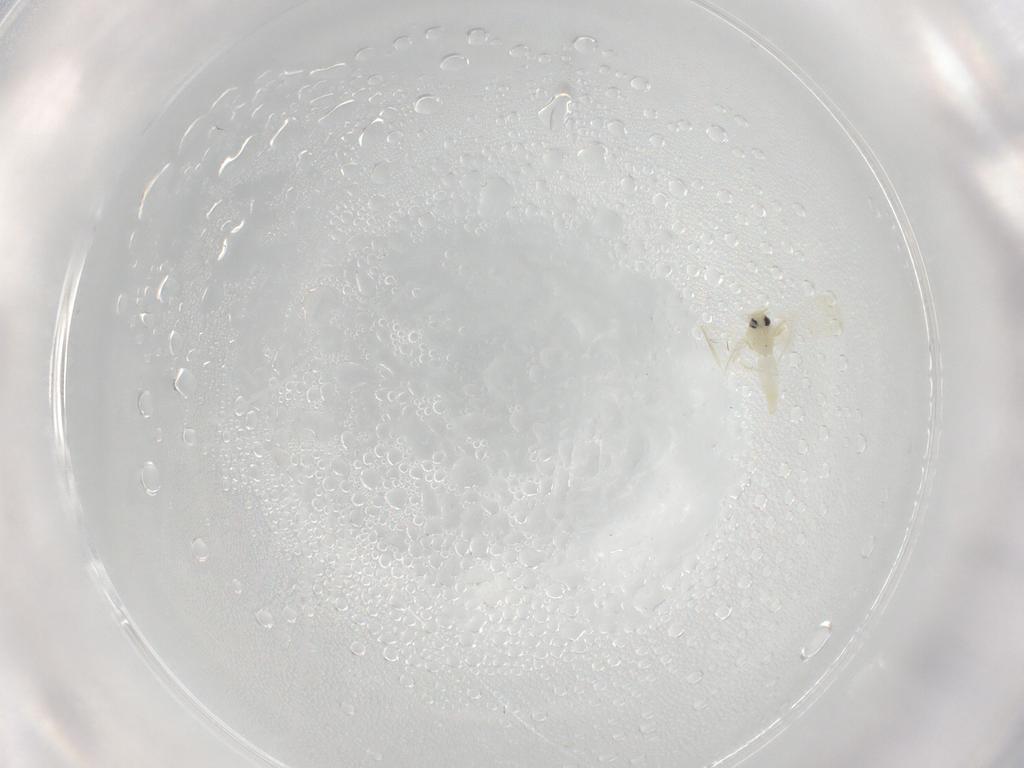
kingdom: Animalia
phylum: Arthropoda
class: Insecta
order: Hemiptera
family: Aleyrodidae
